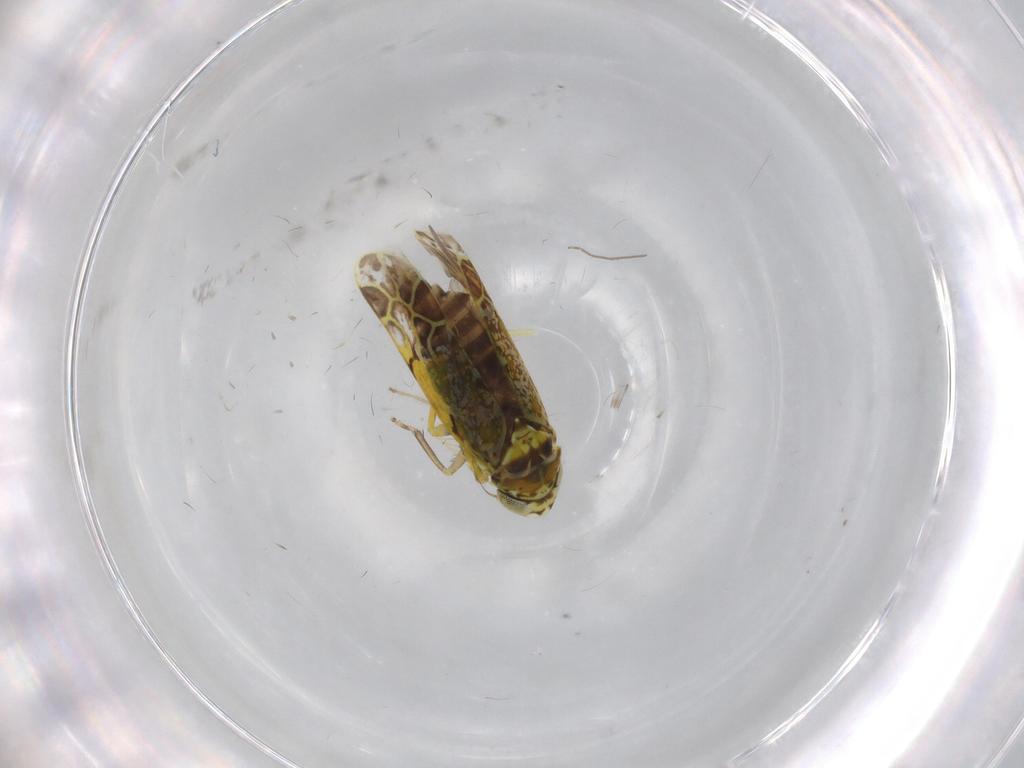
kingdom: Animalia
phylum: Arthropoda
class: Insecta
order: Hemiptera
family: Cicadellidae
